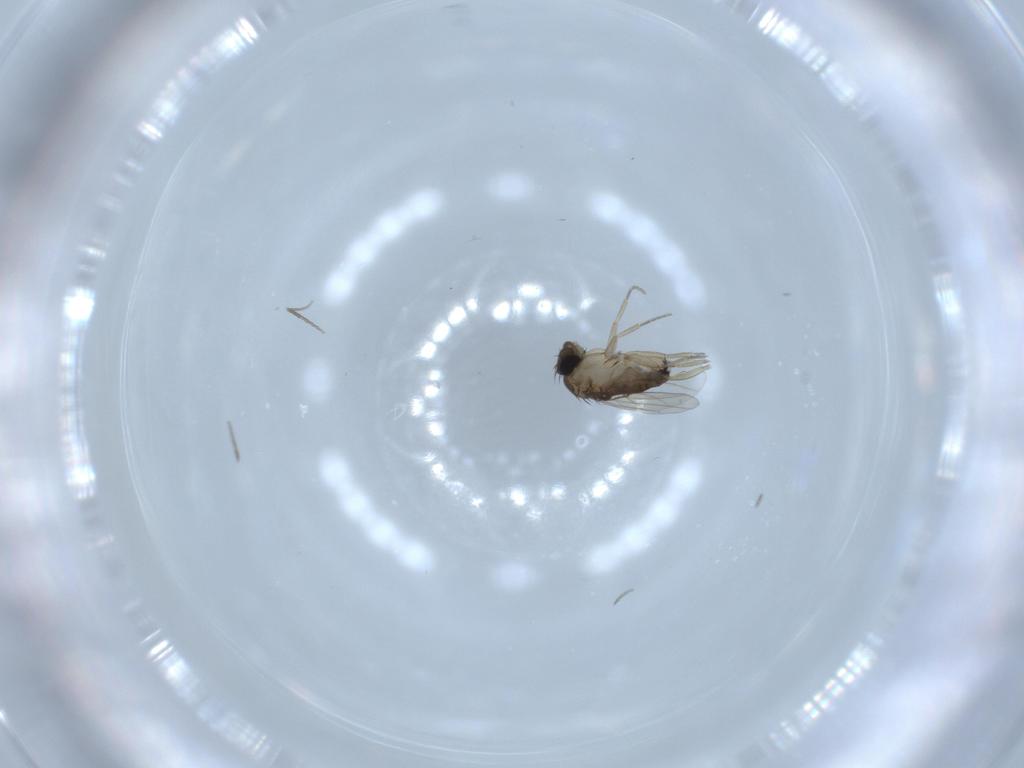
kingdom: Animalia
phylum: Arthropoda
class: Insecta
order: Diptera
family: Phoridae
